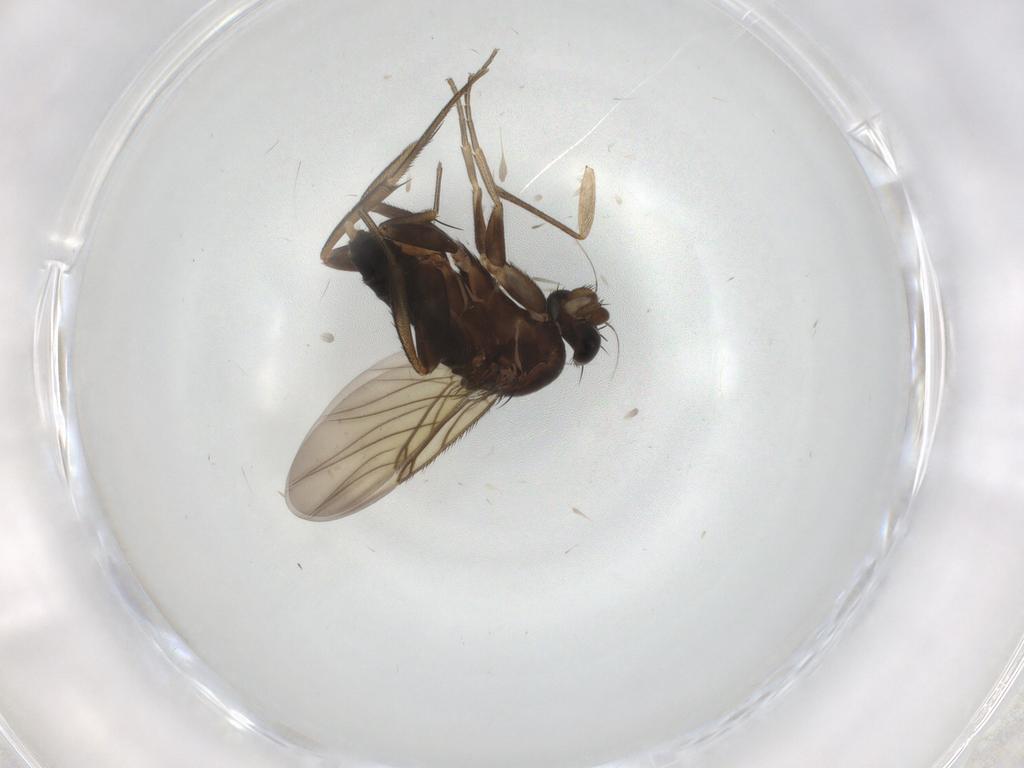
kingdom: Animalia
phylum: Arthropoda
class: Insecta
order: Diptera
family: Phoridae
